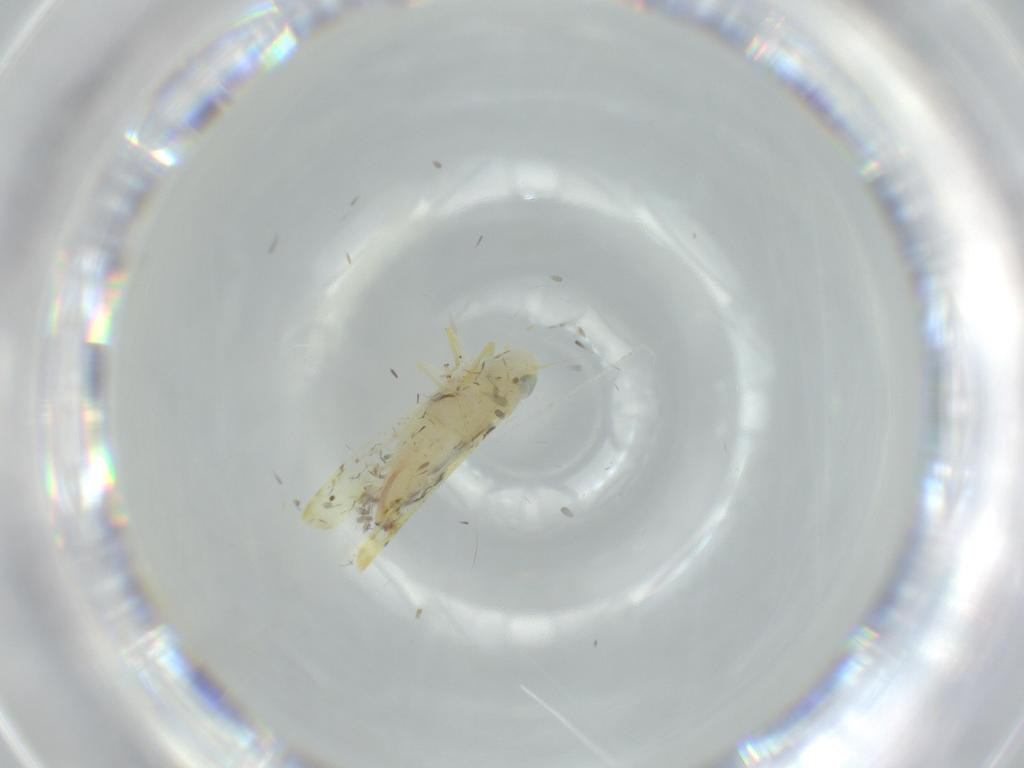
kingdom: Animalia
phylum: Arthropoda
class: Insecta
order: Hemiptera
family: Cicadellidae
